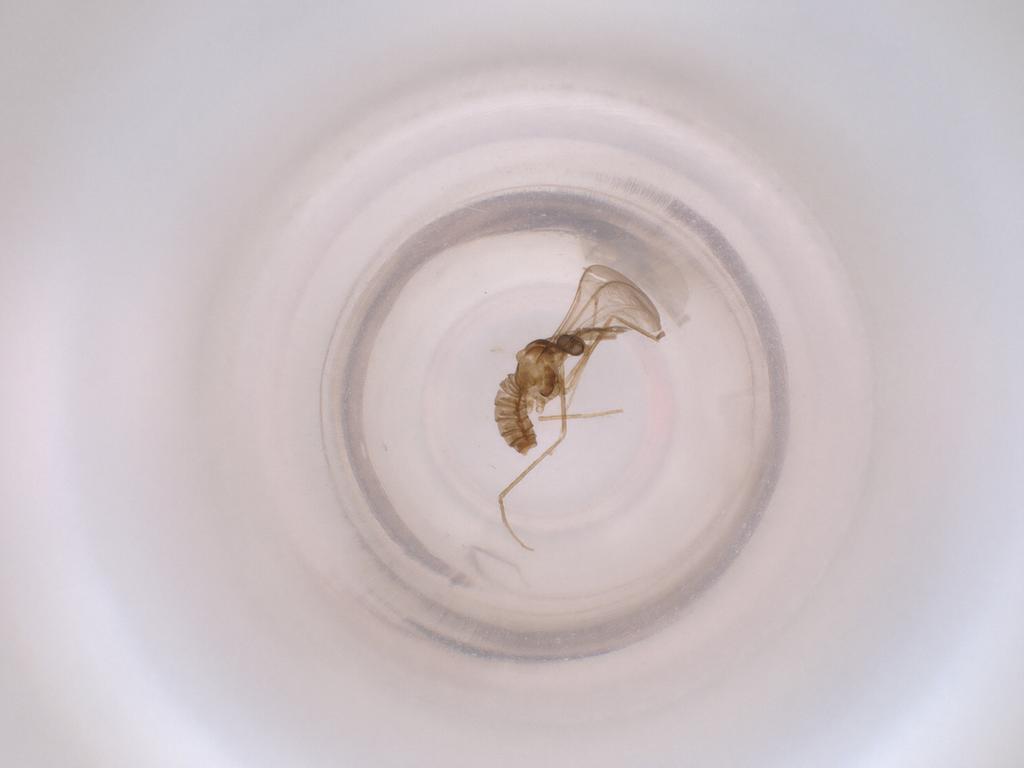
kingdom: Animalia
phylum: Arthropoda
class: Insecta
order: Diptera
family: Cecidomyiidae
